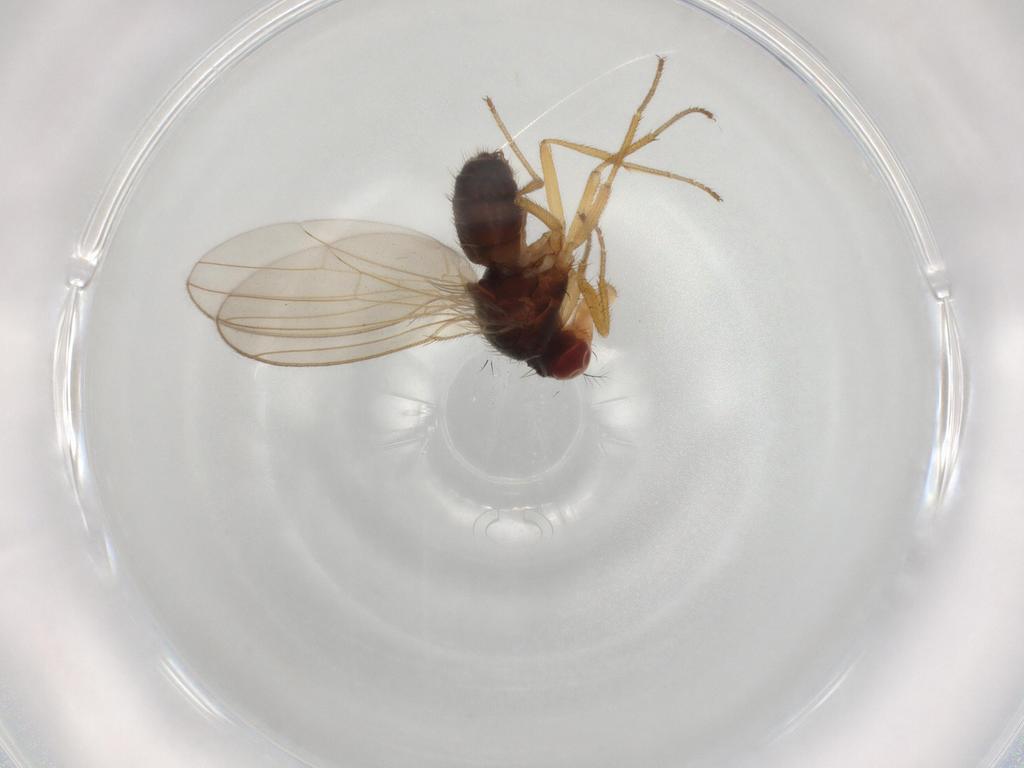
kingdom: Animalia
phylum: Arthropoda
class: Insecta
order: Diptera
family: Drosophilidae
